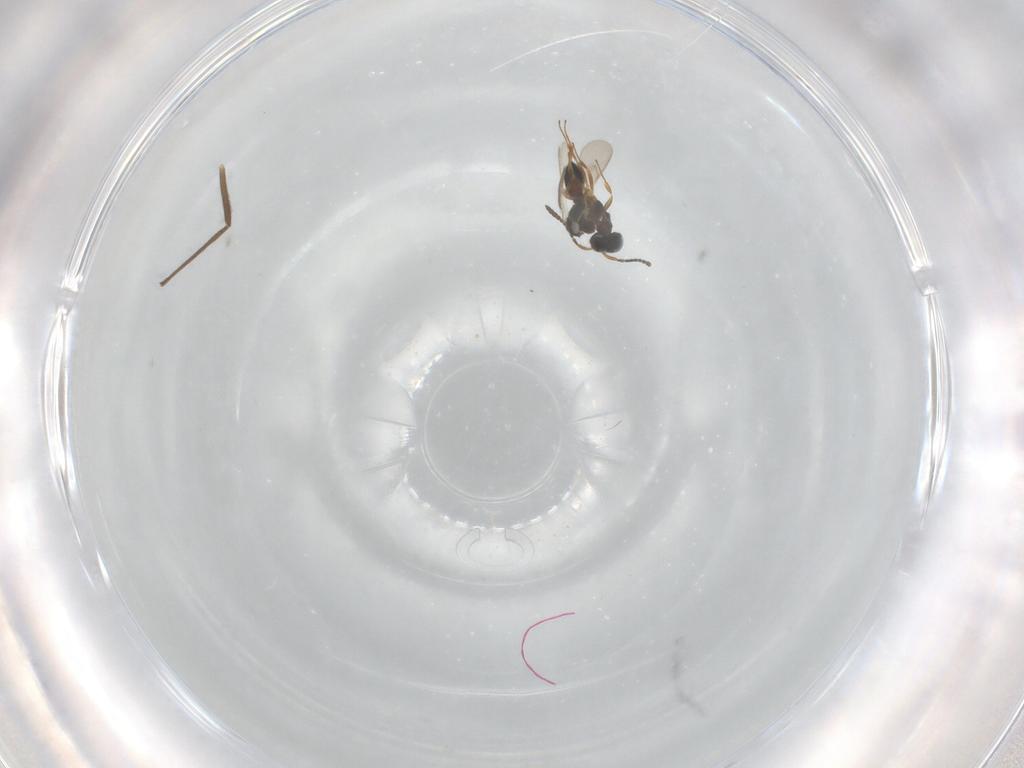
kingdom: Animalia
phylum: Arthropoda
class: Insecta
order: Hymenoptera
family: Scelionidae
